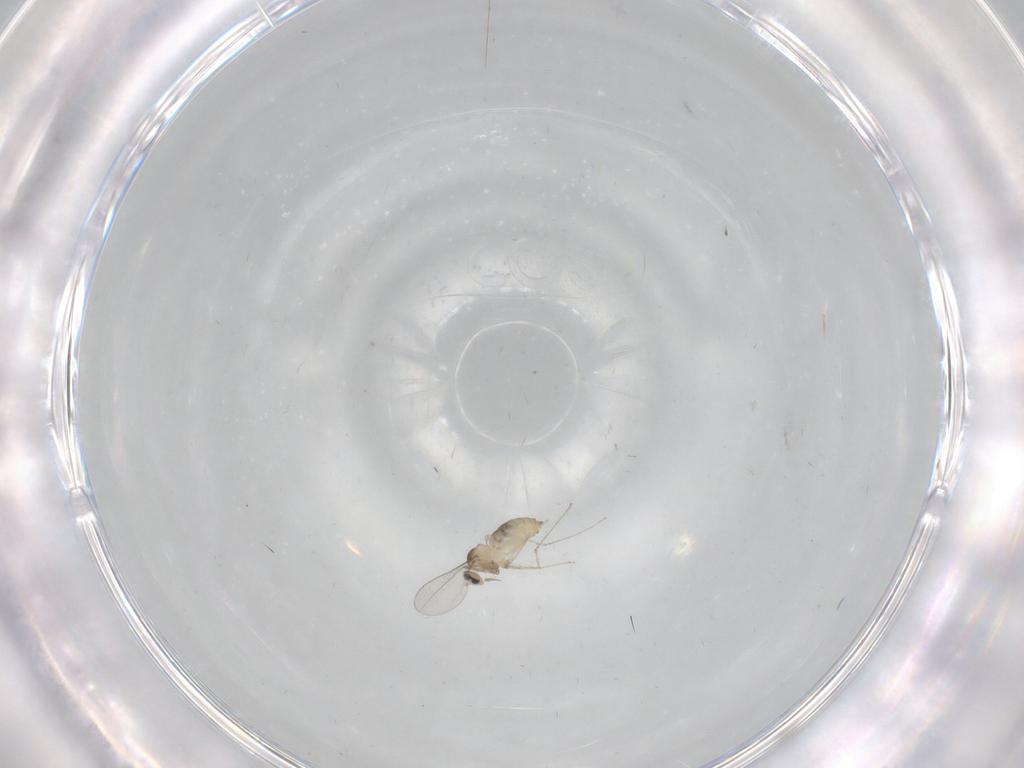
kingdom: Animalia
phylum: Arthropoda
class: Insecta
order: Diptera
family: Cecidomyiidae
